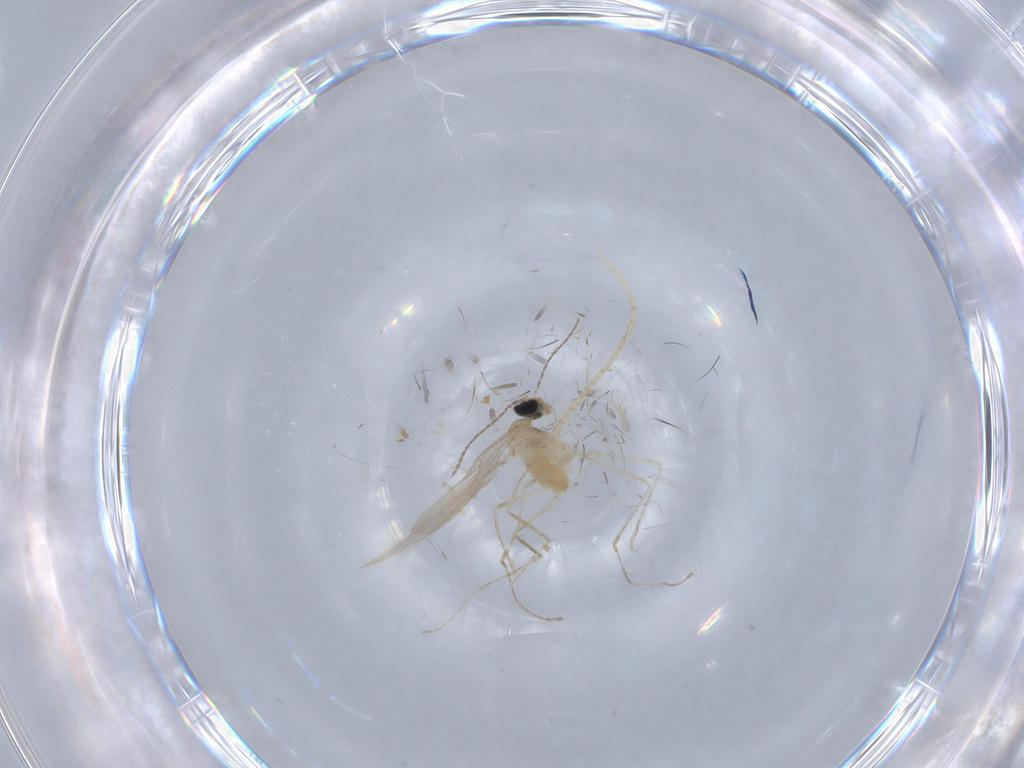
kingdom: Animalia
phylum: Arthropoda
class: Insecta
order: Diptera
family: Cecidomyiidae
